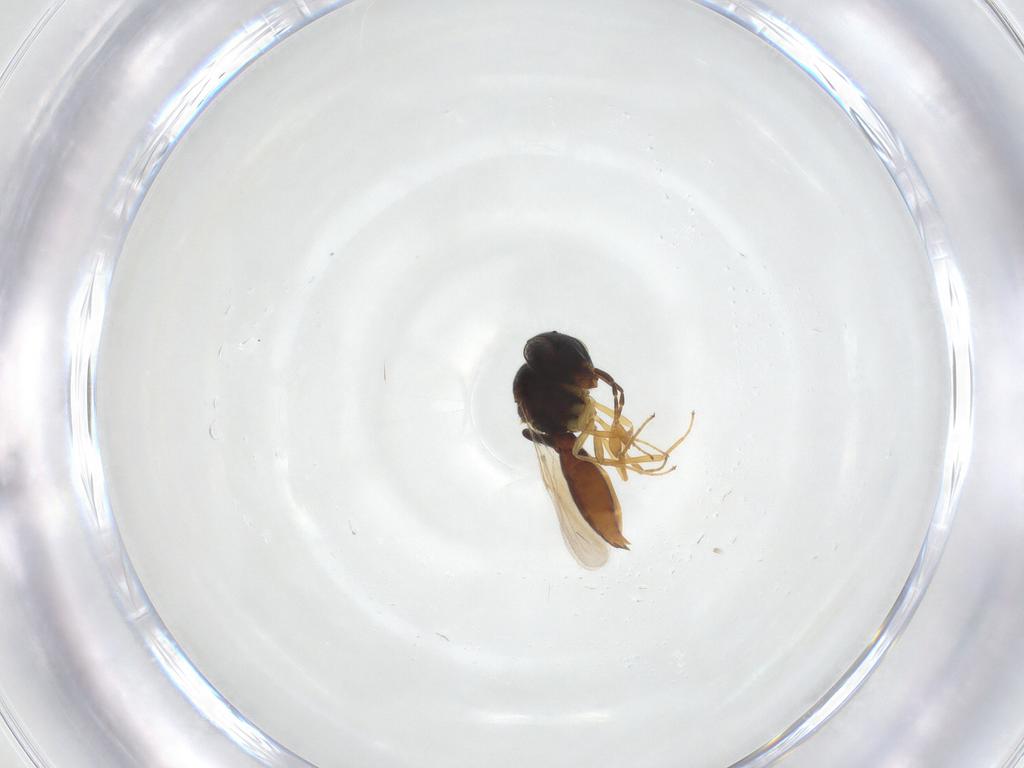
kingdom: Animalia
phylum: Arthropoda
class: Insecta
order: Hymenoptera
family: Scelionidae
